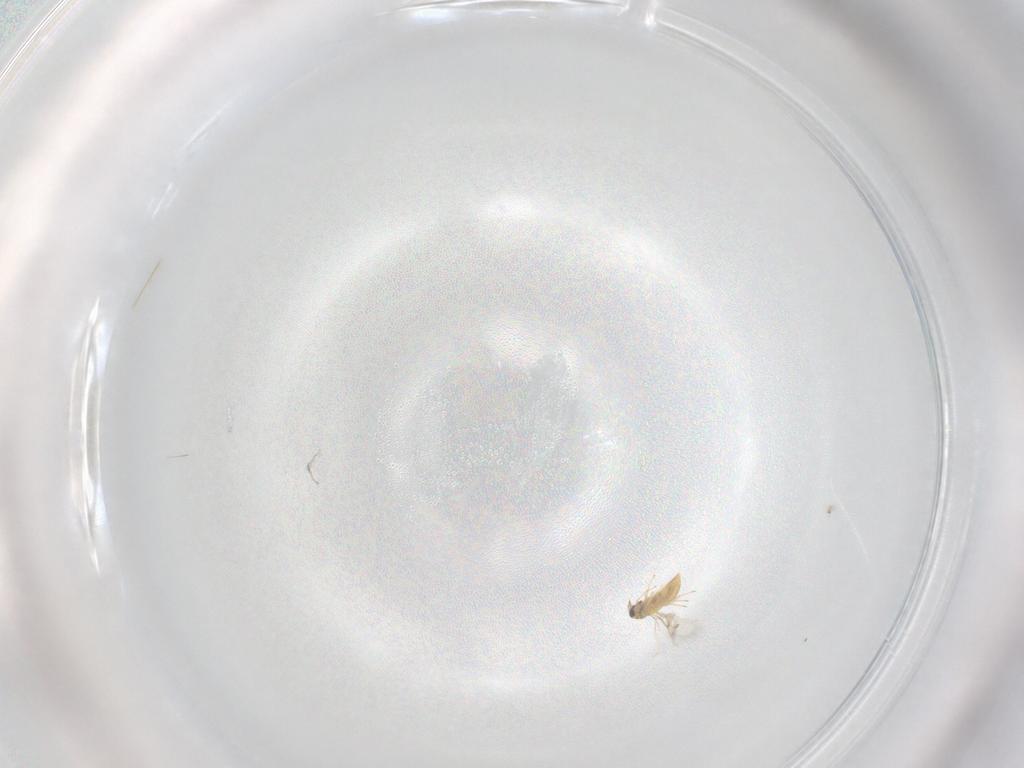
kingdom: Animalia
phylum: Arthropoda
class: Insecta
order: Hymenoptera
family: Trichogrammatidae
